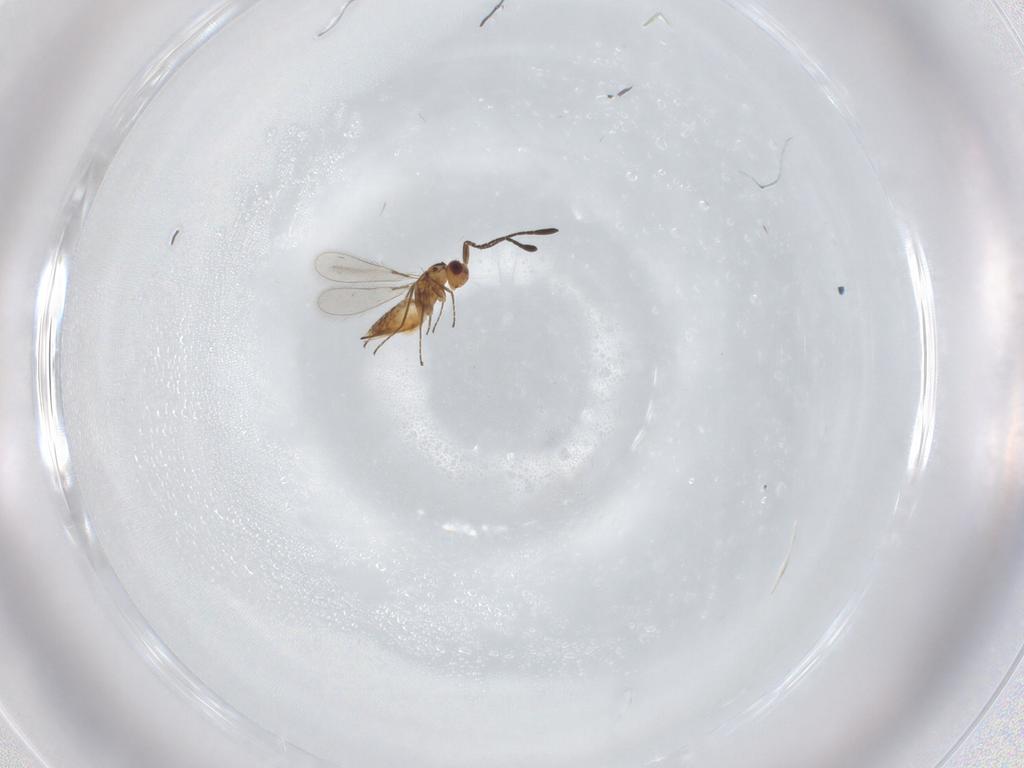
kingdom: Animalia
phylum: Arthropoda
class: Insecta
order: Hymenoptera
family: Mymaridae
